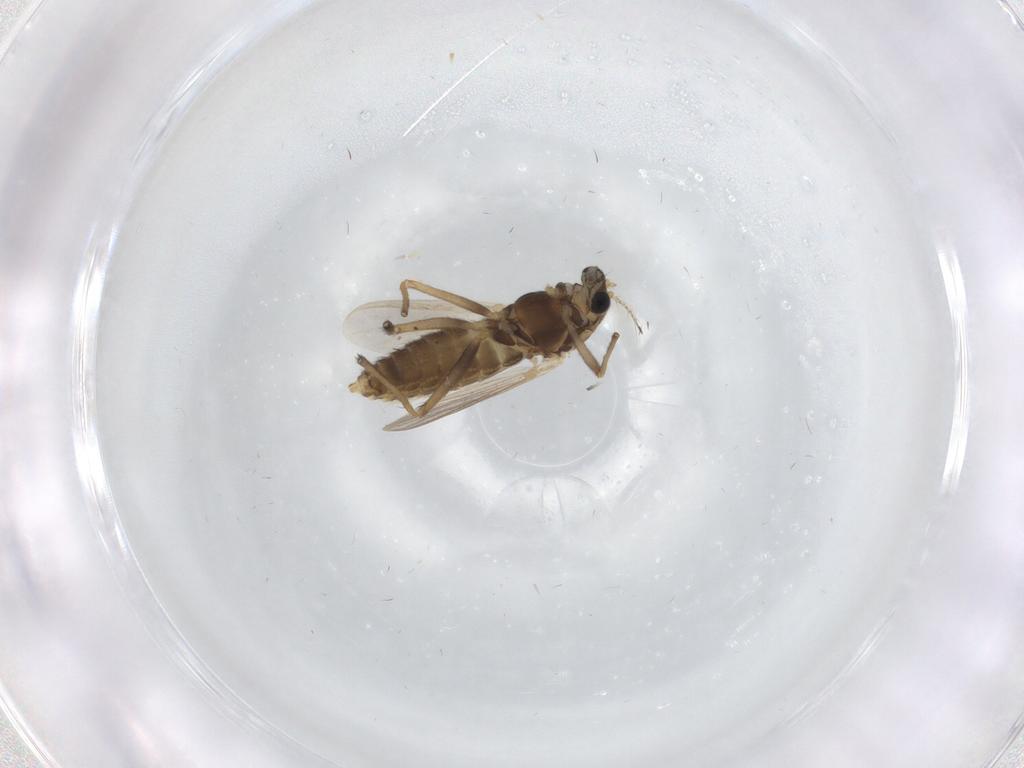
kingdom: Animalia
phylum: Arthropoda
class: Insecta
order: Diptera
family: Chironomidae
